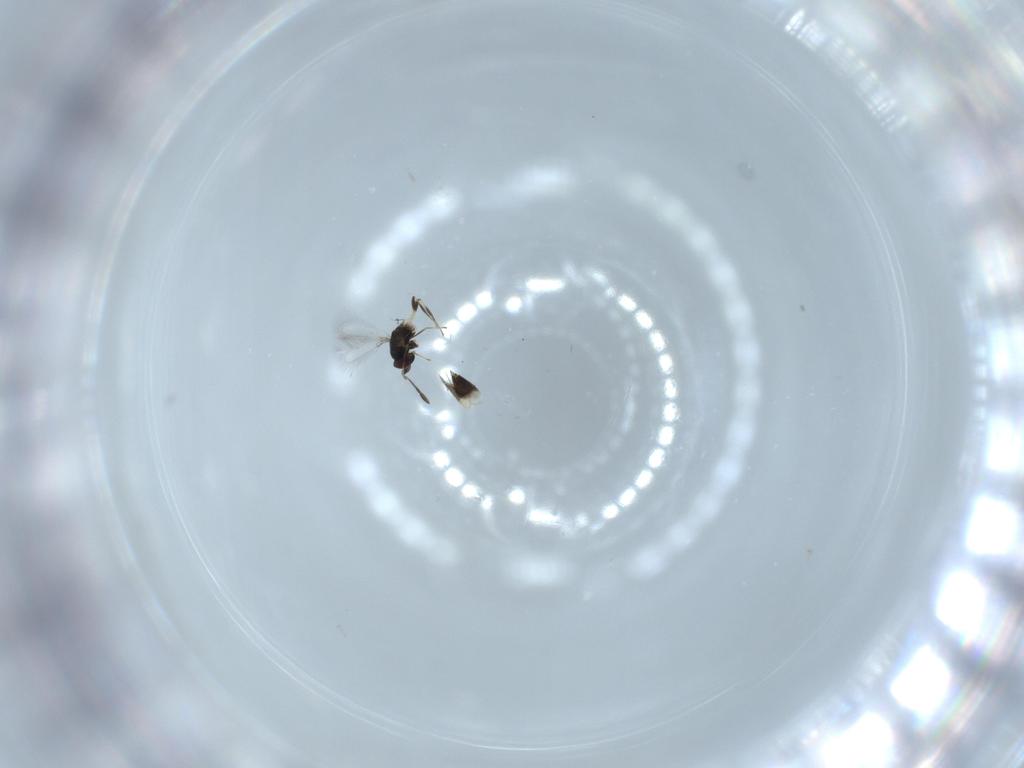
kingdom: Animalia
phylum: Arthropoda
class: Insecta
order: Hymenoptera
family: Mymaridae
